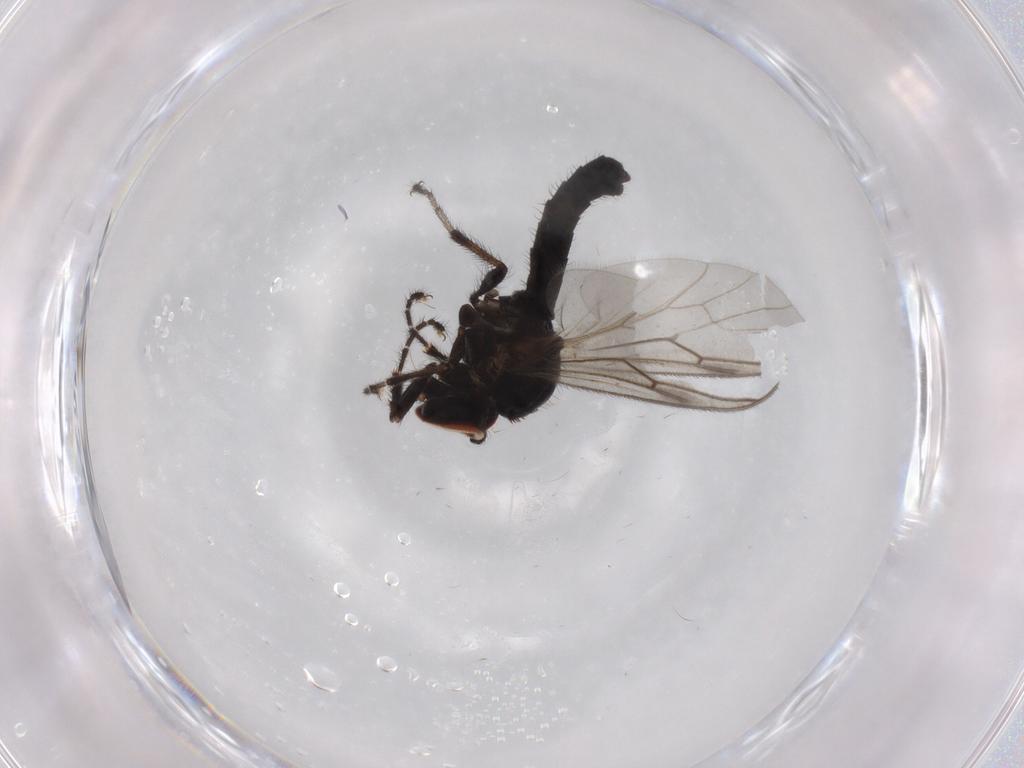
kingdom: Animalia
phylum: Arthropoda
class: Insecta
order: Diptera
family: Bibionidae
